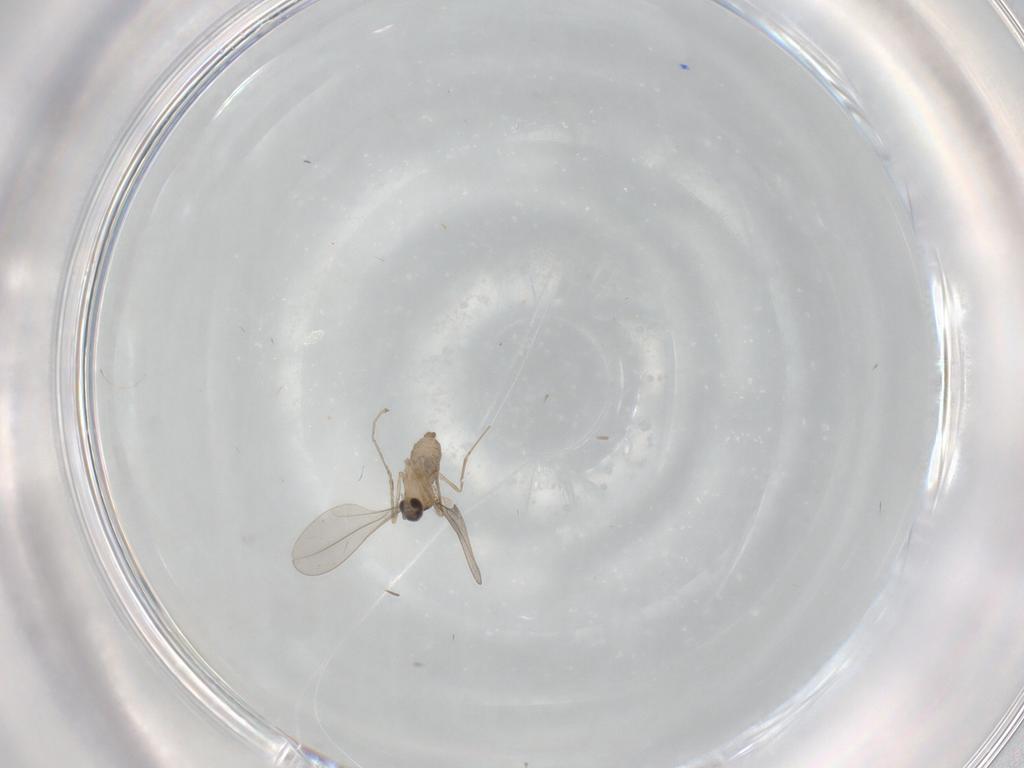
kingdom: Animalia
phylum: Arthropoda
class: Insecta
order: Diptera
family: Cecidomyiidae
